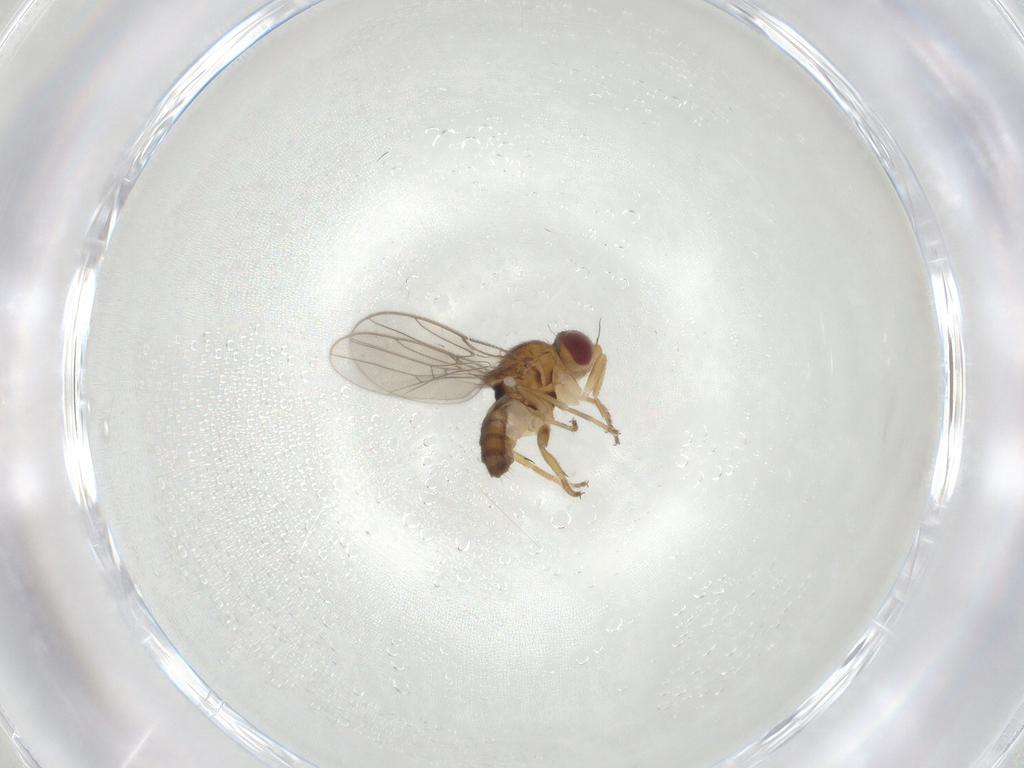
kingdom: Animalia
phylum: Arthropoda
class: Insecta
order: Diptera
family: Chloropidae
